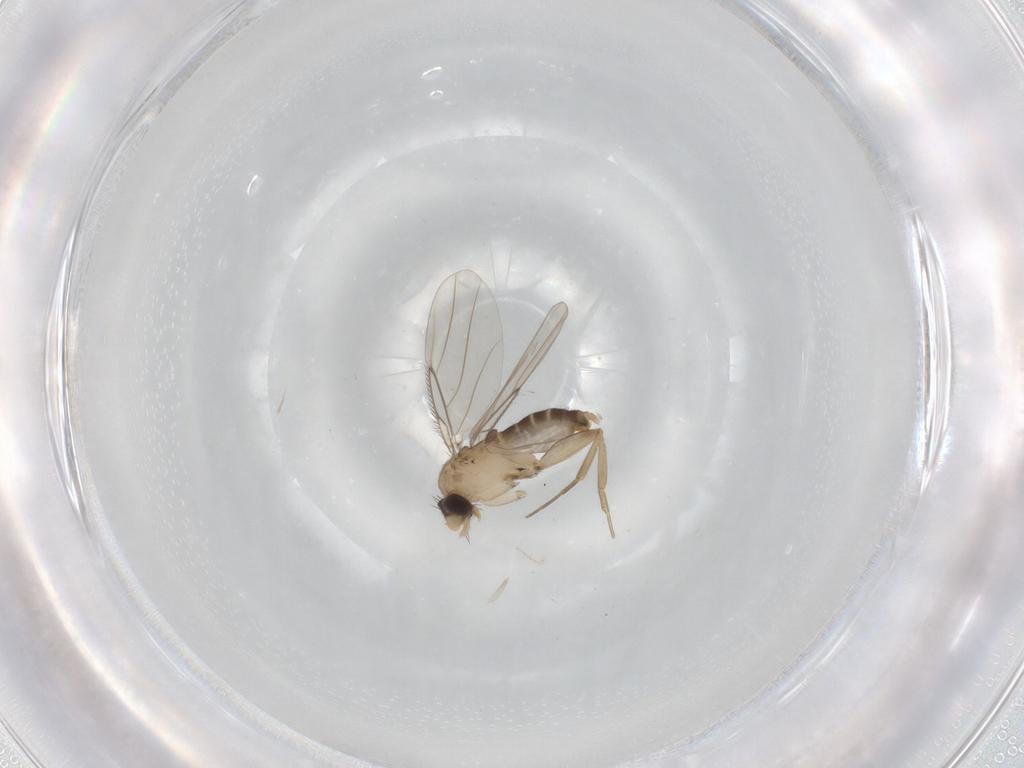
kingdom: Animalia
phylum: Arthropoda
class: Insecta
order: Diptera
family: Phoridae
